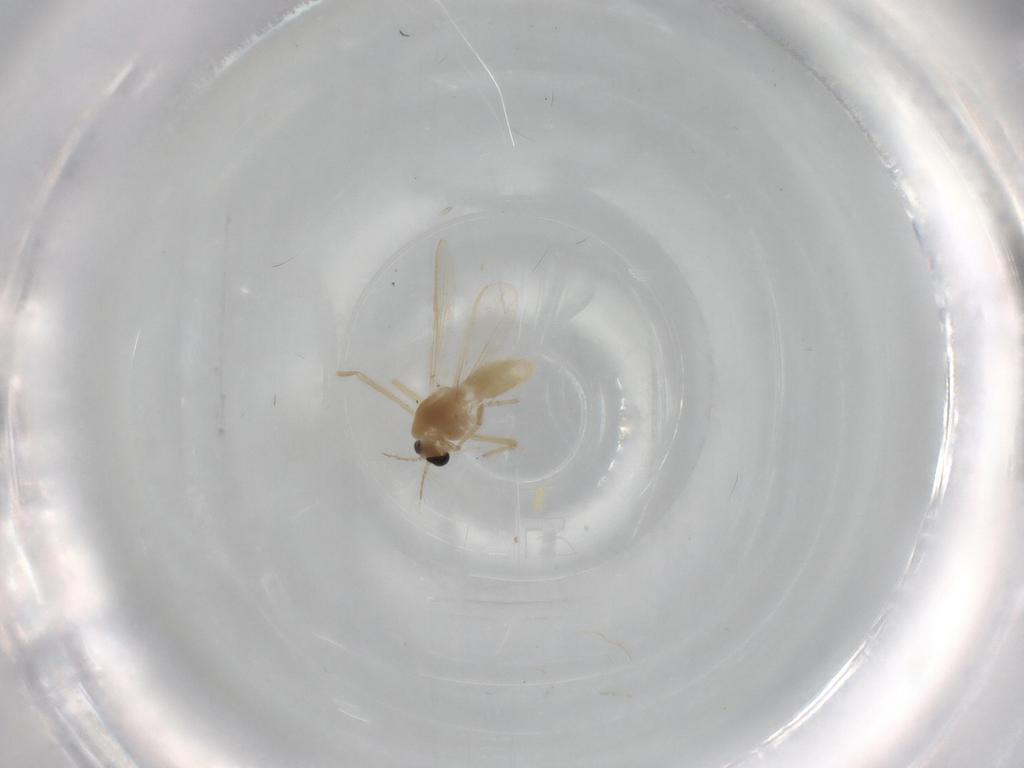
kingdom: Animalia
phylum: Arthropoda
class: Insecta
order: Diptera
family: Chironomidae
